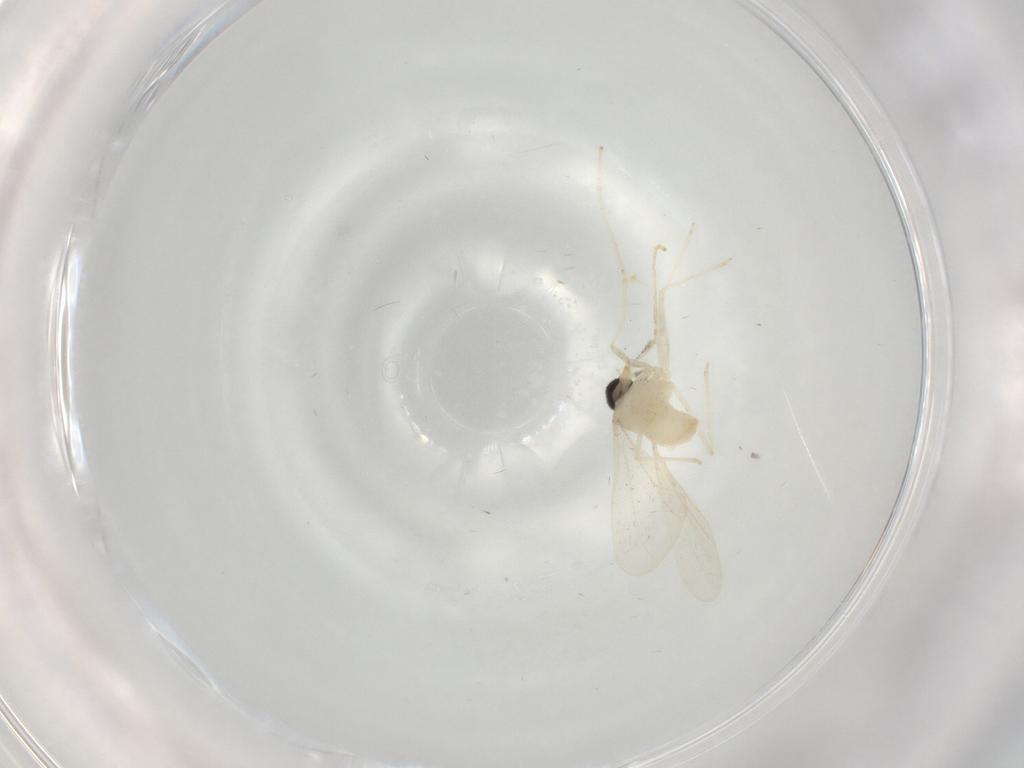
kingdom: Animalia
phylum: Arthropoda
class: Insecta
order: Diptera
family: Cecidomyiidae
